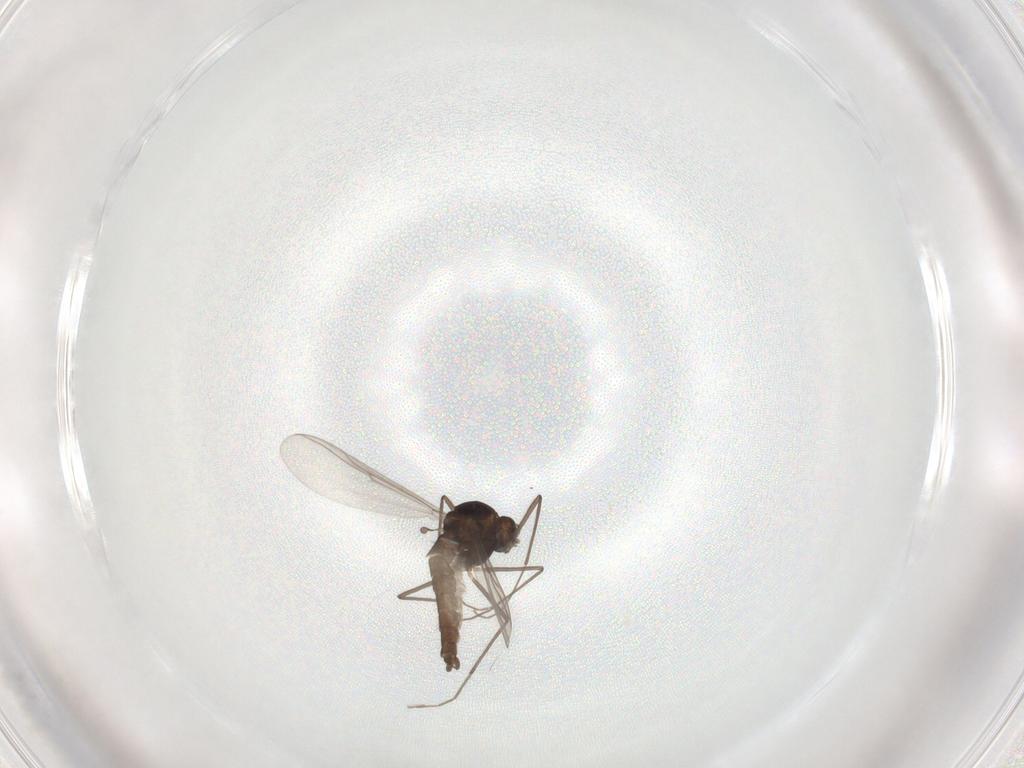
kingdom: Animalia
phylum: Arthropoda
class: Insecta
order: Diptera
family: Chironomidae
